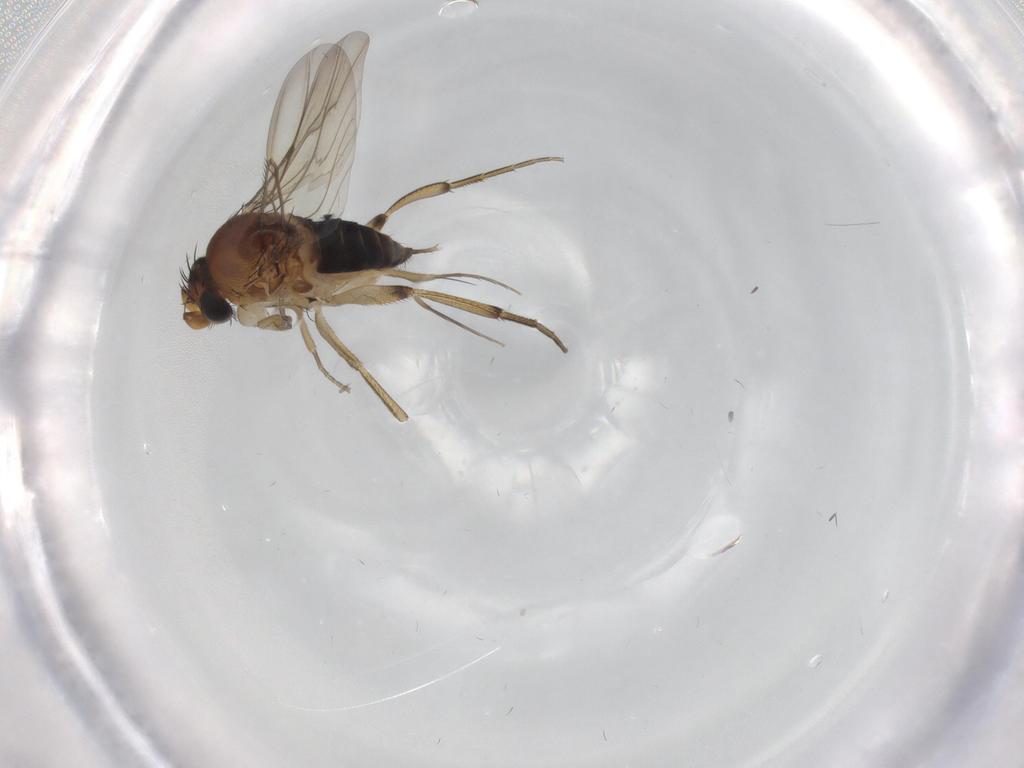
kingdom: Animalia
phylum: Arthropoda
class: Insecta
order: Diptera
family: Phoridae
